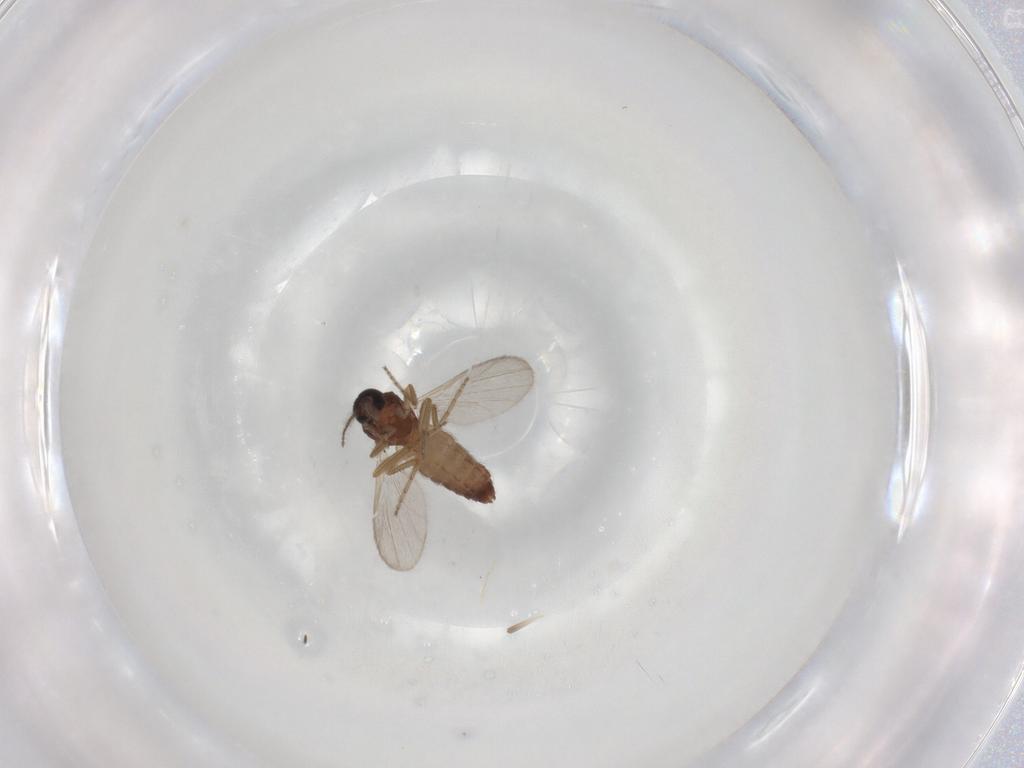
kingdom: Animalia
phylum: Arthropoda
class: Insecta
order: Diptera
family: Ceratopogonidae
